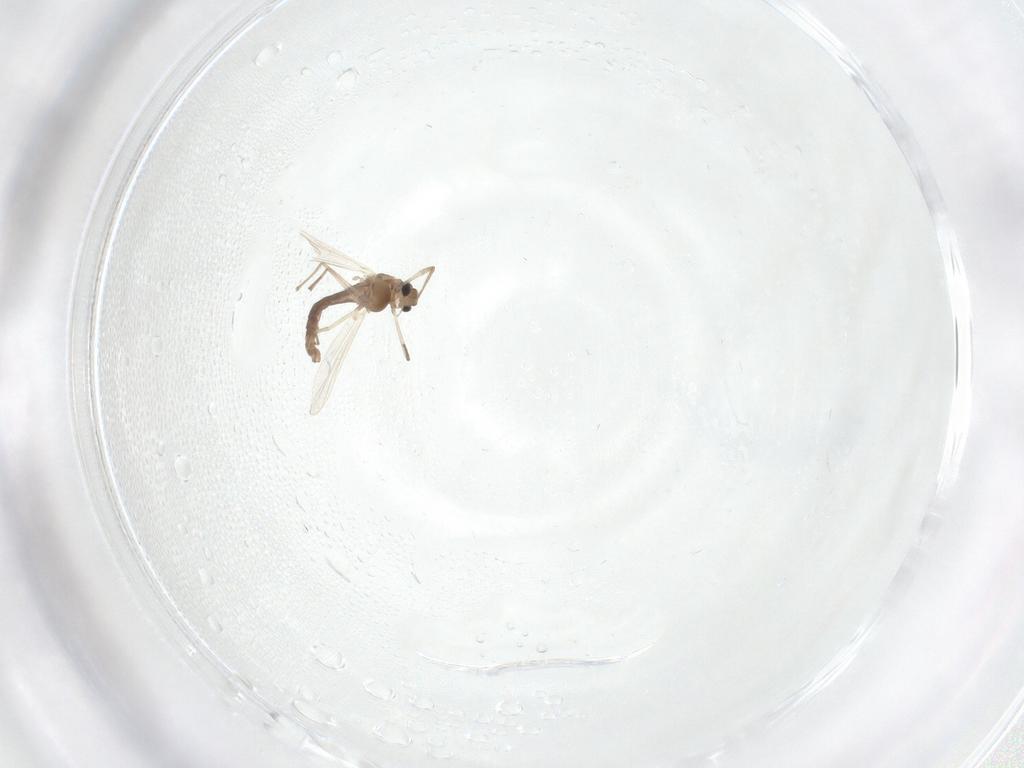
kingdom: Animalia
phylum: Arthropoda
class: Insecta
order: Diptera
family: Chironomidae
